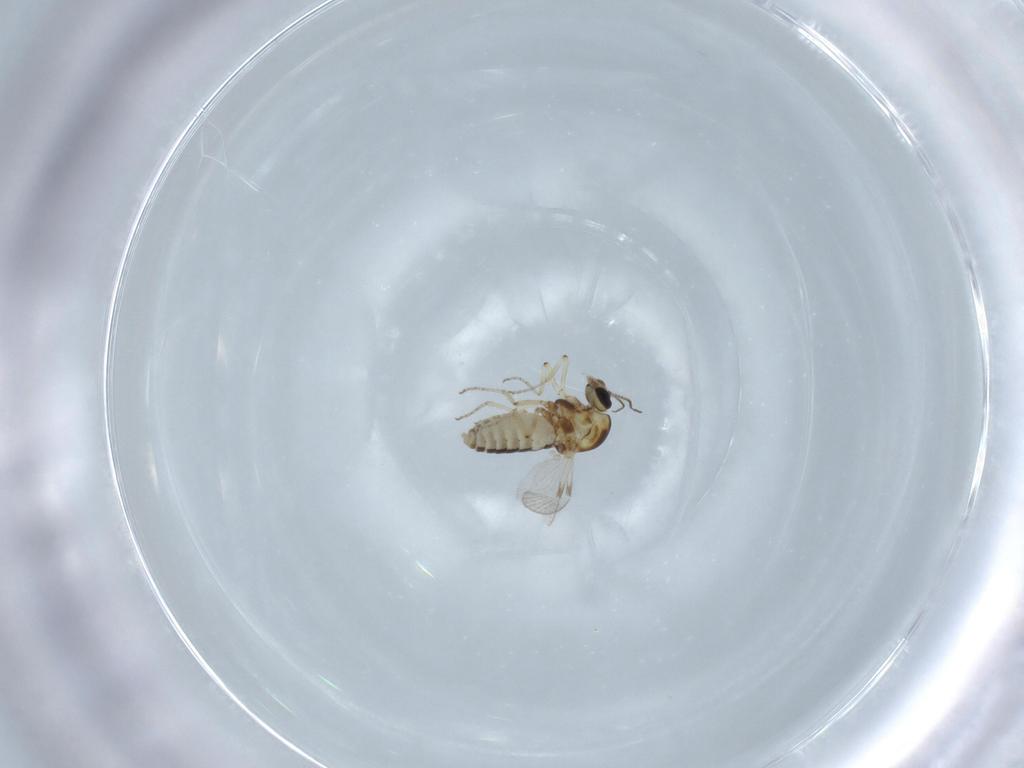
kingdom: Animalia
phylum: Arthropoda
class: Insecta
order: Diptera
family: Ceratopogonidae
